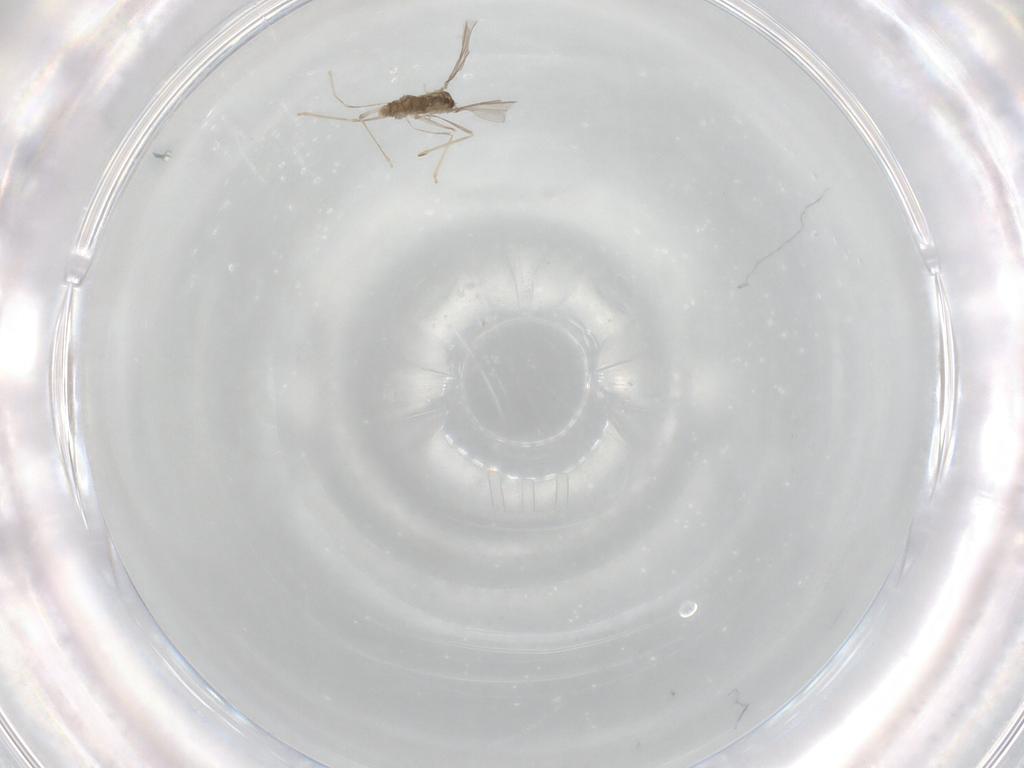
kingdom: Animalia
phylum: Arthropoda
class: Insecta
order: Diptera
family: Cecidomyiidae
